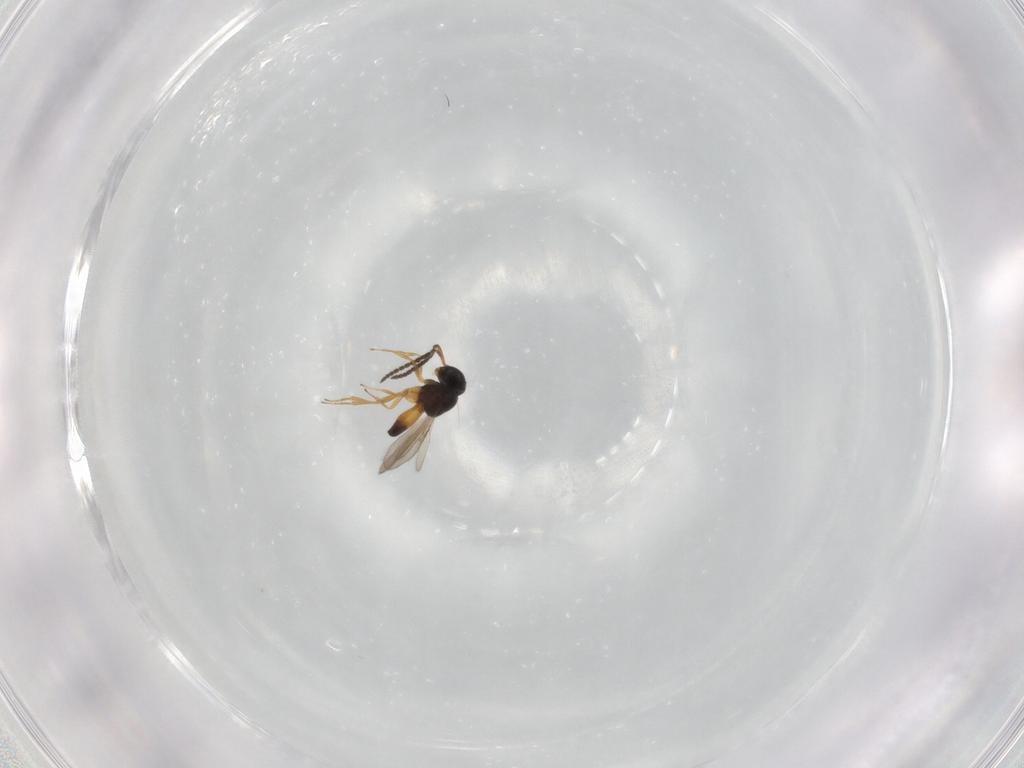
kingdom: Animalia
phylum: Arthropoda
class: Insecta
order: Hymenoptera
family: Scelionidae
